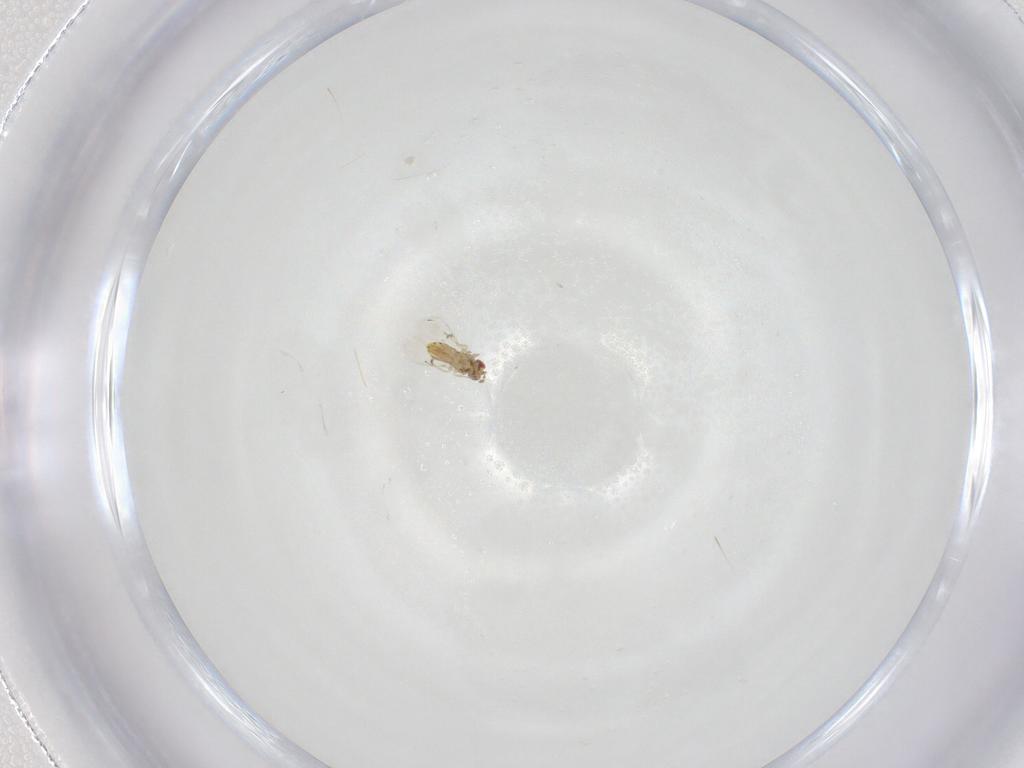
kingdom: Animalia
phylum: Arthropoda
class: Insecta
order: Hymenoptera
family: Trichogrammatidae
